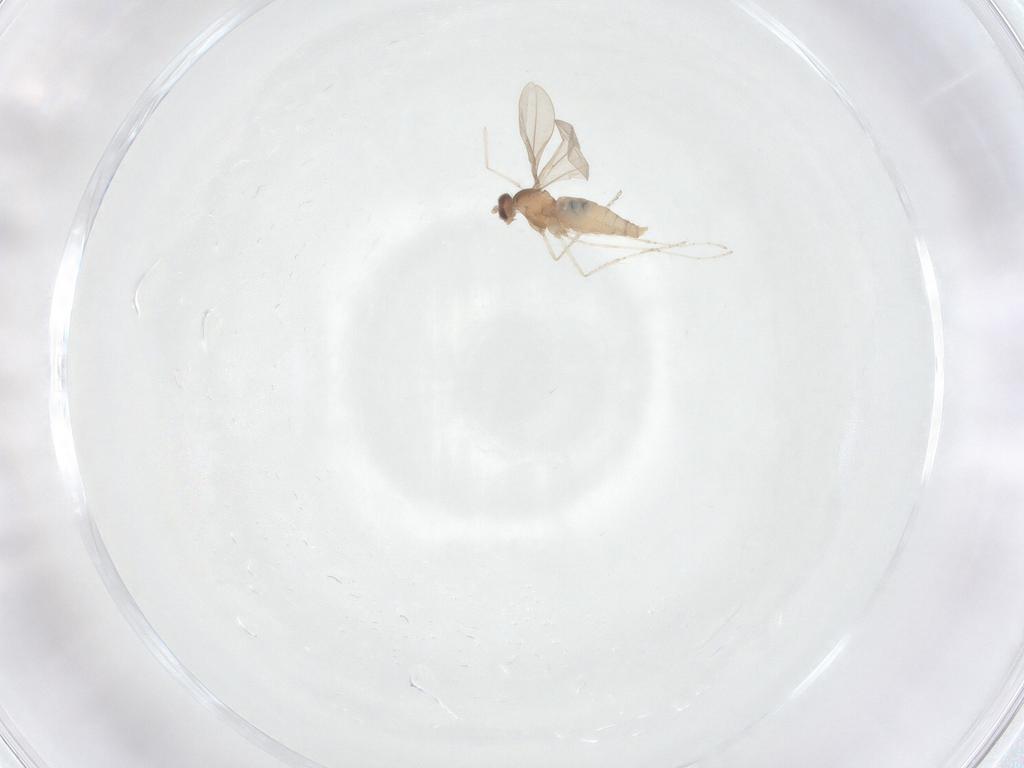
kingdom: Animalia
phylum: Arthropoda
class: Insecta
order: Diptera
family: Cecidomyiidae
